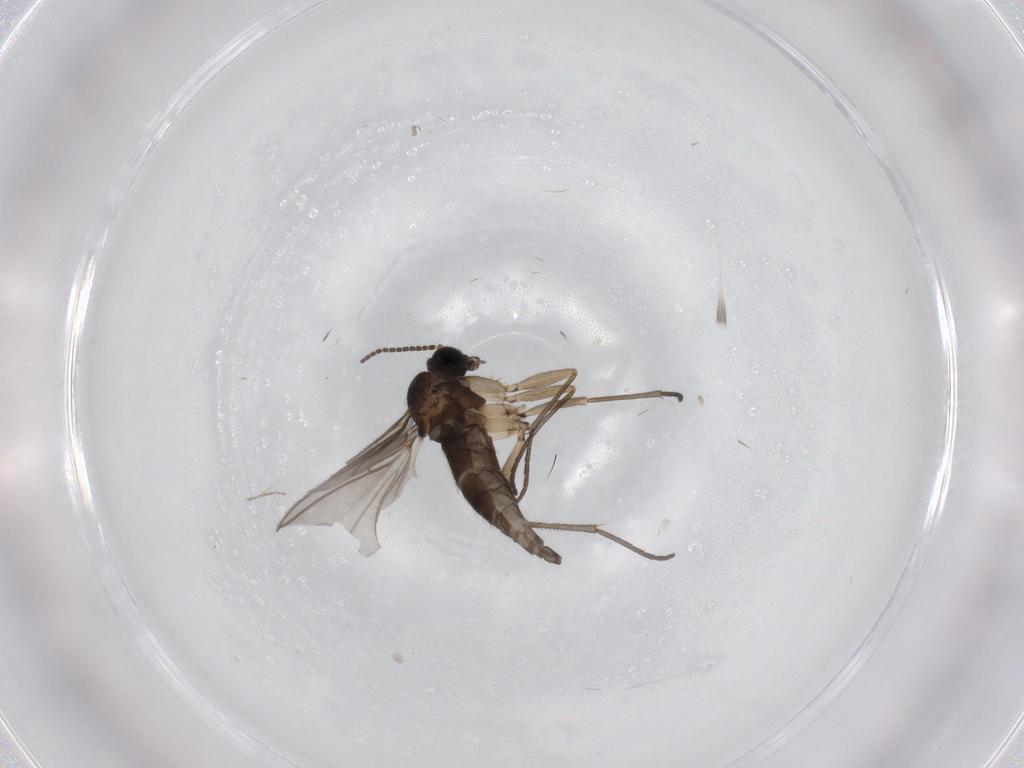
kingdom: Animalia
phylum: Arthropoda
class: Insecta
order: Diptera
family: Sciaridae
